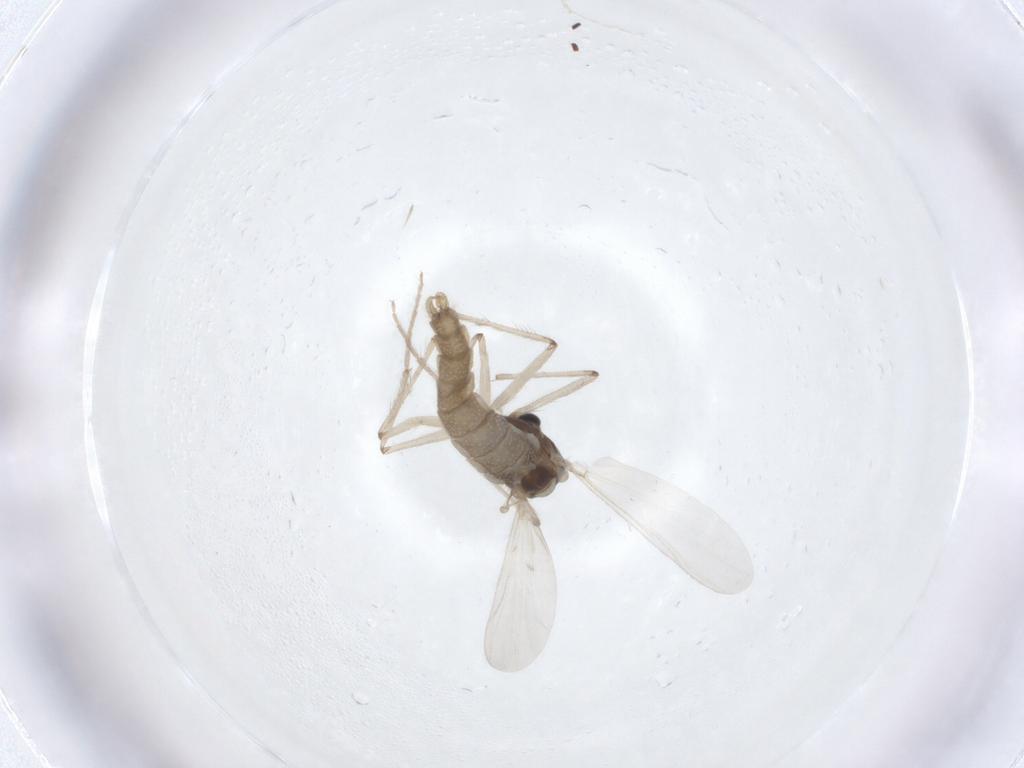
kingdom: Animalia
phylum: Arthropoda
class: Insecta
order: Diptera
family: Chironomidae
